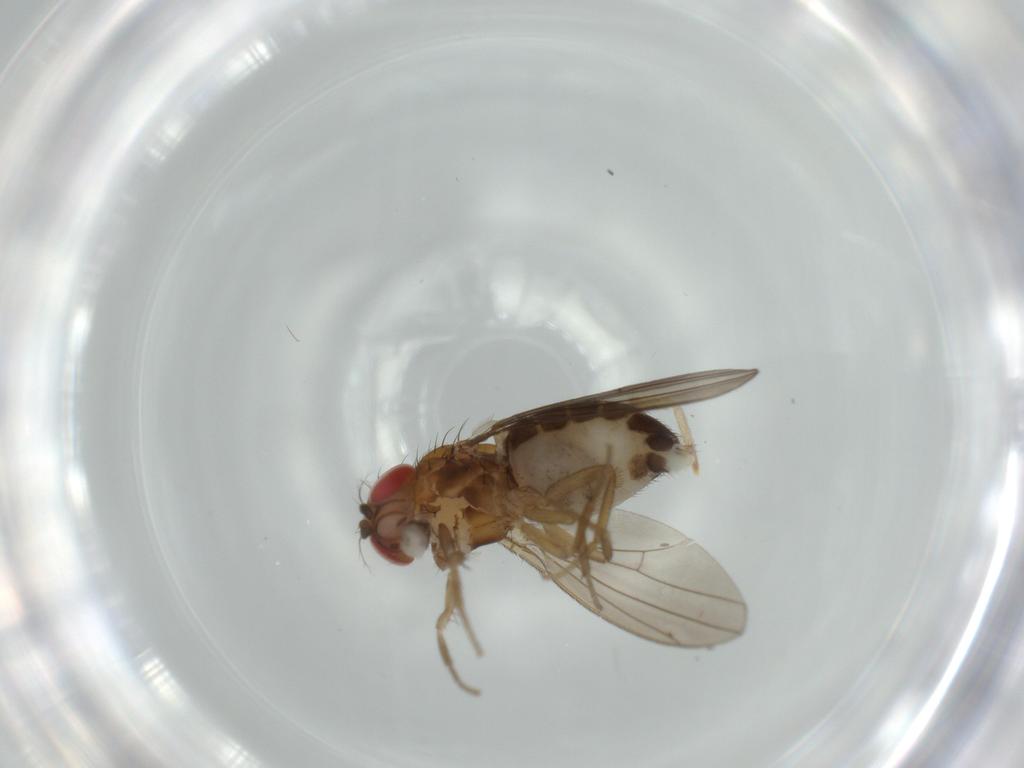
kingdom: Animalia
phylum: Arthropoda
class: Insecta
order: Diptera
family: Drosophilidae
